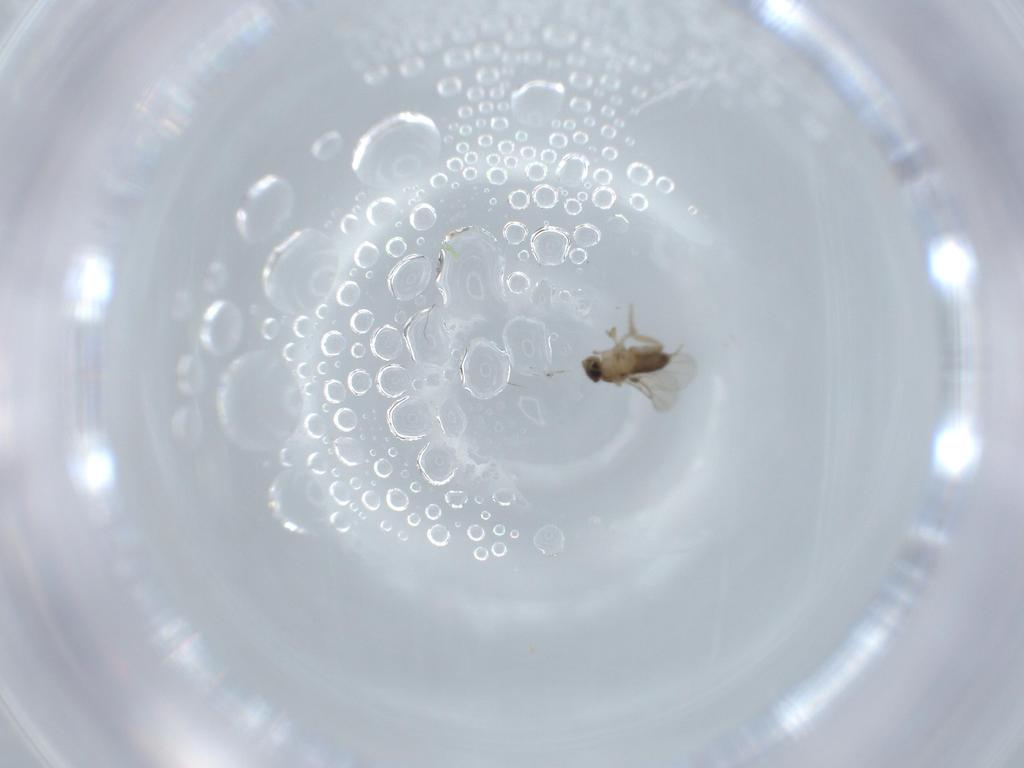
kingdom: Animalia
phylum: Arthropoda
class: Insecta
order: Diptera
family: Phoridae
